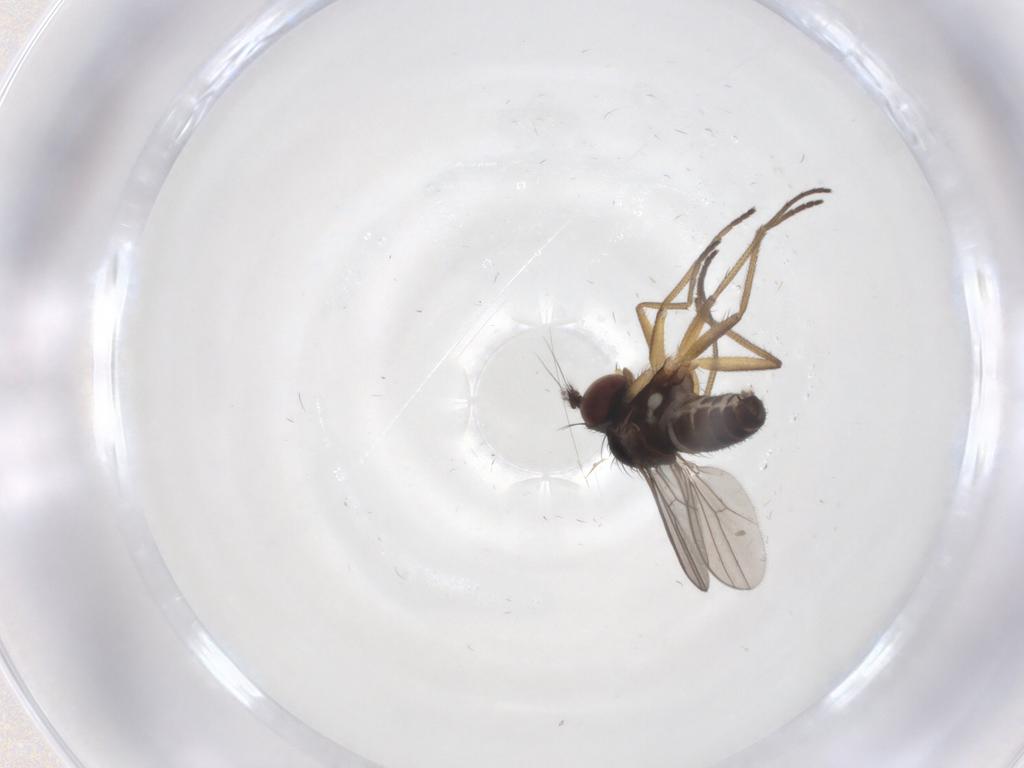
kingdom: Animalia
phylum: Arthropoda
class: Insecta
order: Diptera
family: Dolichopodidae
